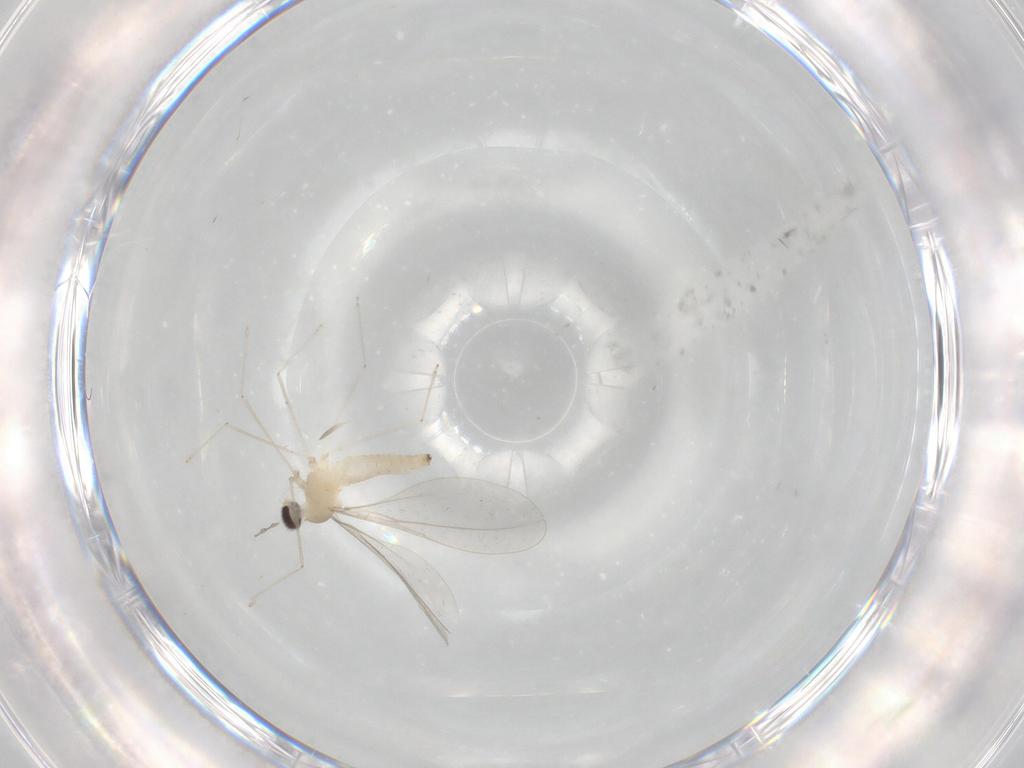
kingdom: Animalia
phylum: Arthropoda
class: Insecta
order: Diptera
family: Cecidomyiidae
